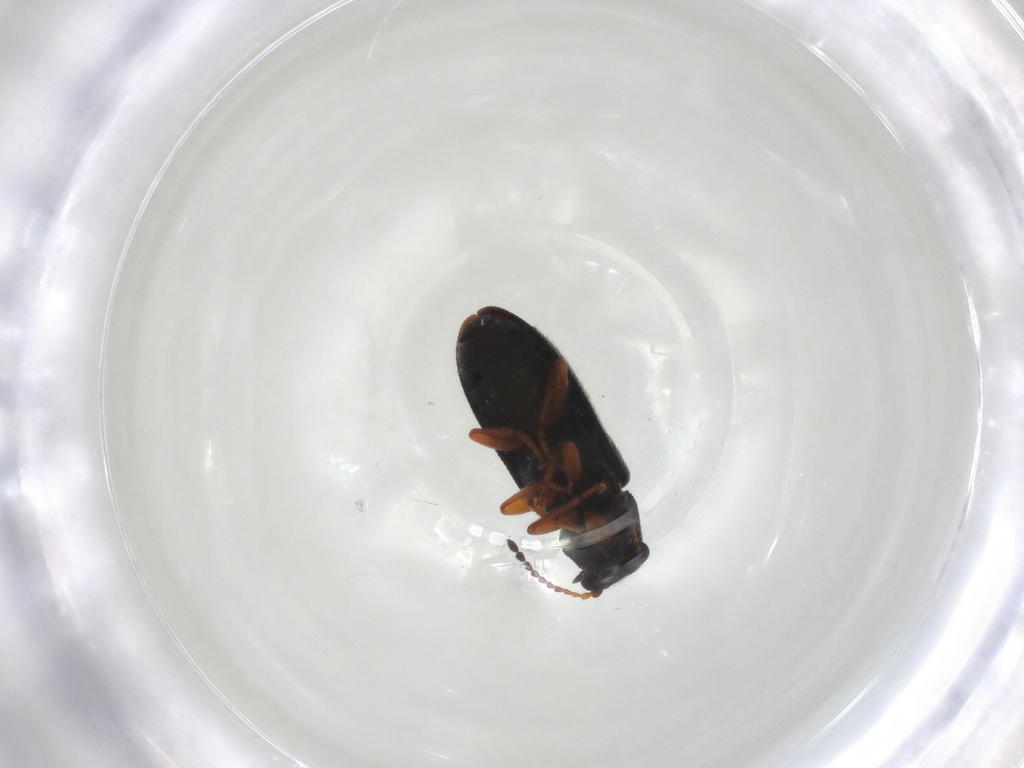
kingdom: Animalia
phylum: Arthropoda
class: Insecta
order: Coleoptera
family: Melyridae
